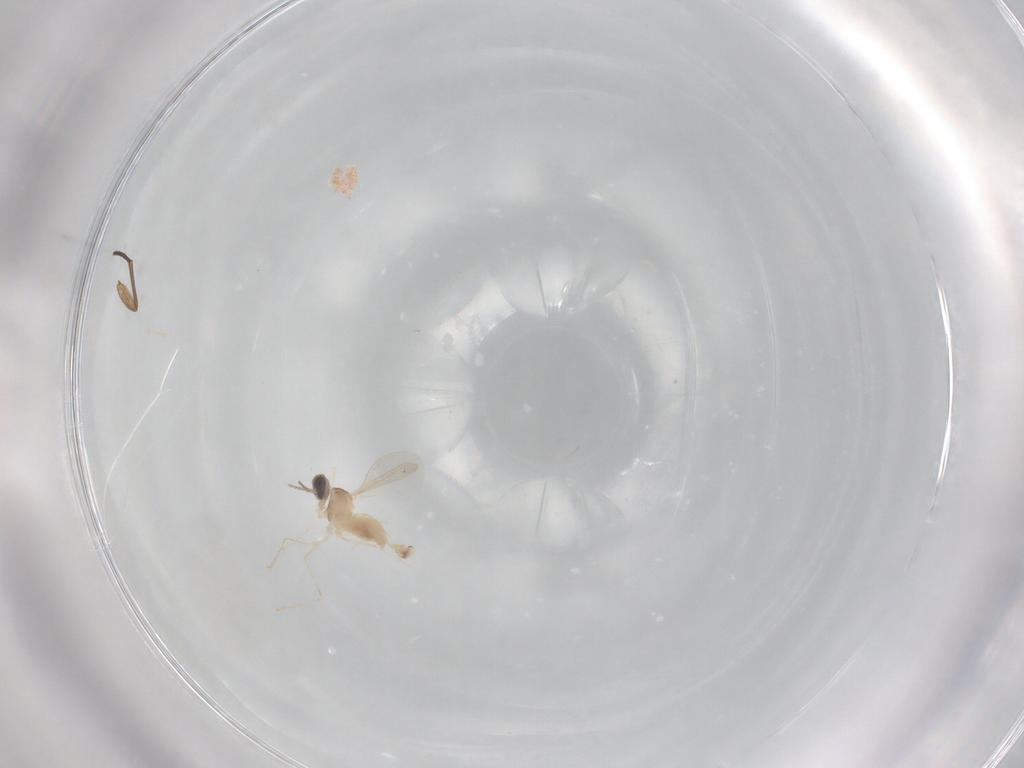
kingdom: Animalia
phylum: Arthropoda
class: Insecta
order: Diptera
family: Cecidomyiidae
